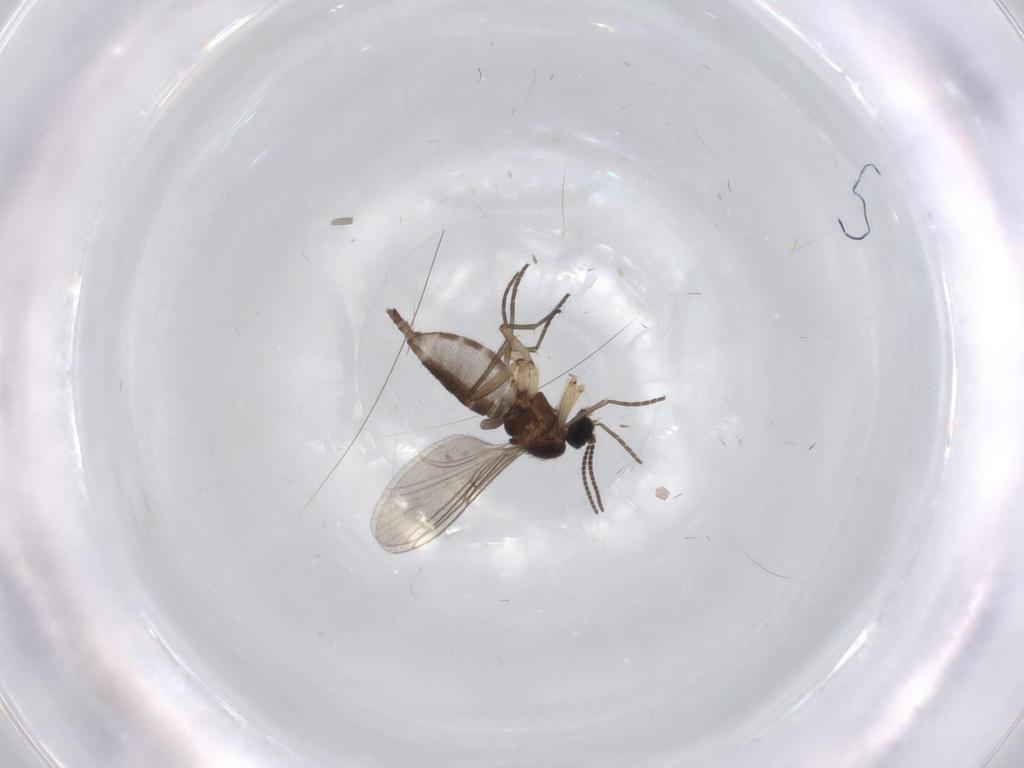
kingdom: Animalia
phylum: Arthropoda
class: Insecta
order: Diptera
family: Sciaridae
